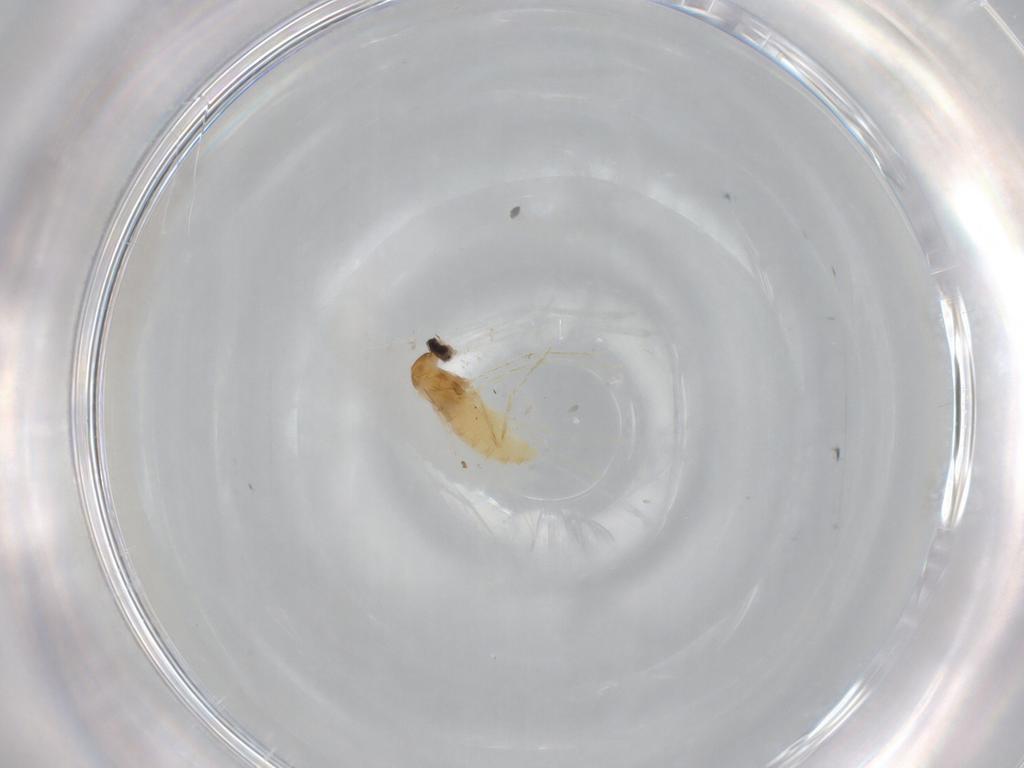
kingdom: Animalia
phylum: Arthropoda
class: Insecta
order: Diptera
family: Cecidomyiidae
